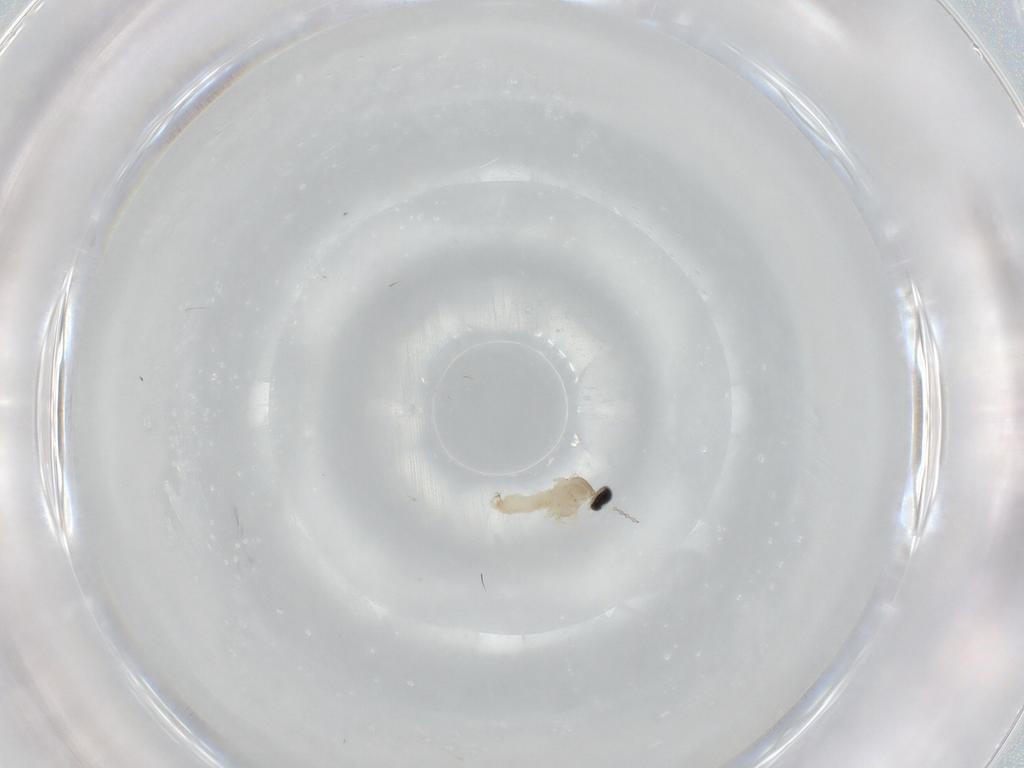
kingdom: Animalia
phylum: Arthropoda
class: Insecta
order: Diptera
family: Cecidomyiidae
